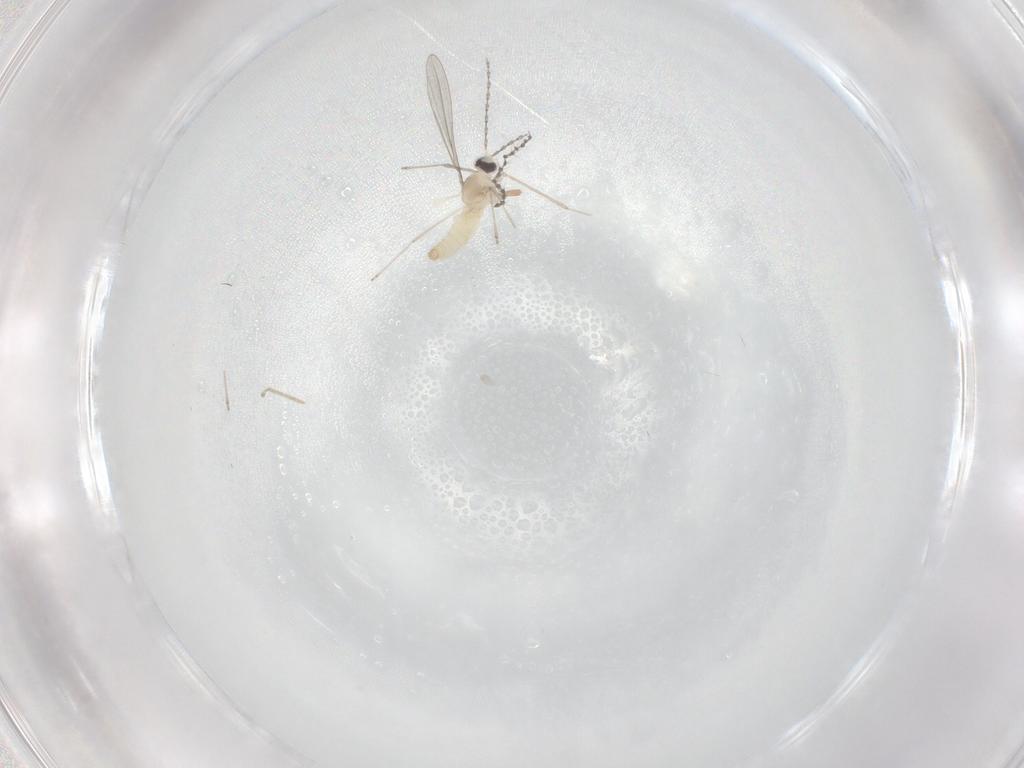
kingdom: Animalia
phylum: Arthropoda
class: Insecta
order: Diptera
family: Cecidomyiidae
